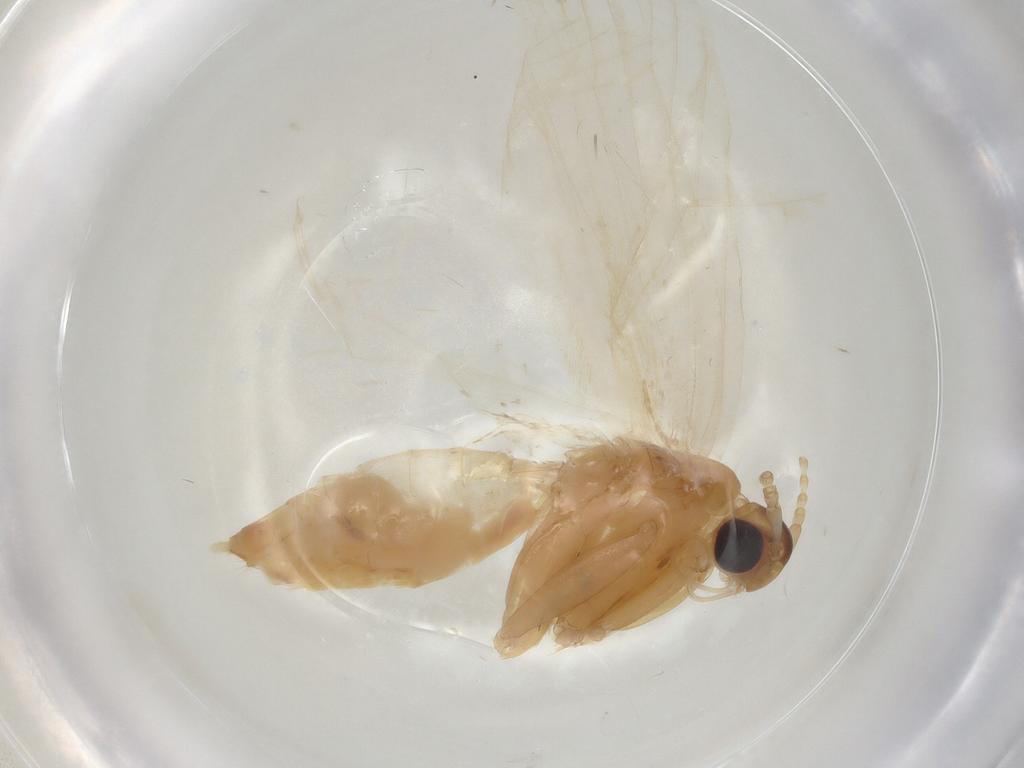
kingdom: Animalia
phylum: Arthropoda
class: Insecta
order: Lepidoptera
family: Lecithoceridae
